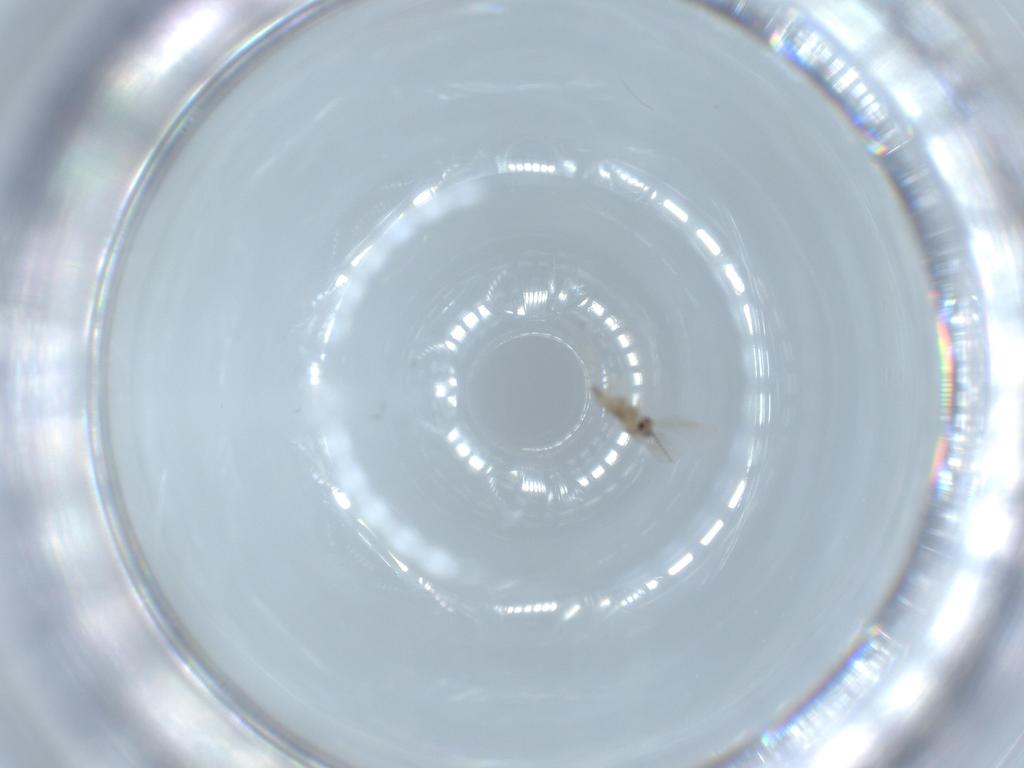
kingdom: Animalia
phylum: Arthropoda
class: Insecta
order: Diptera
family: Cecidomyiidae
